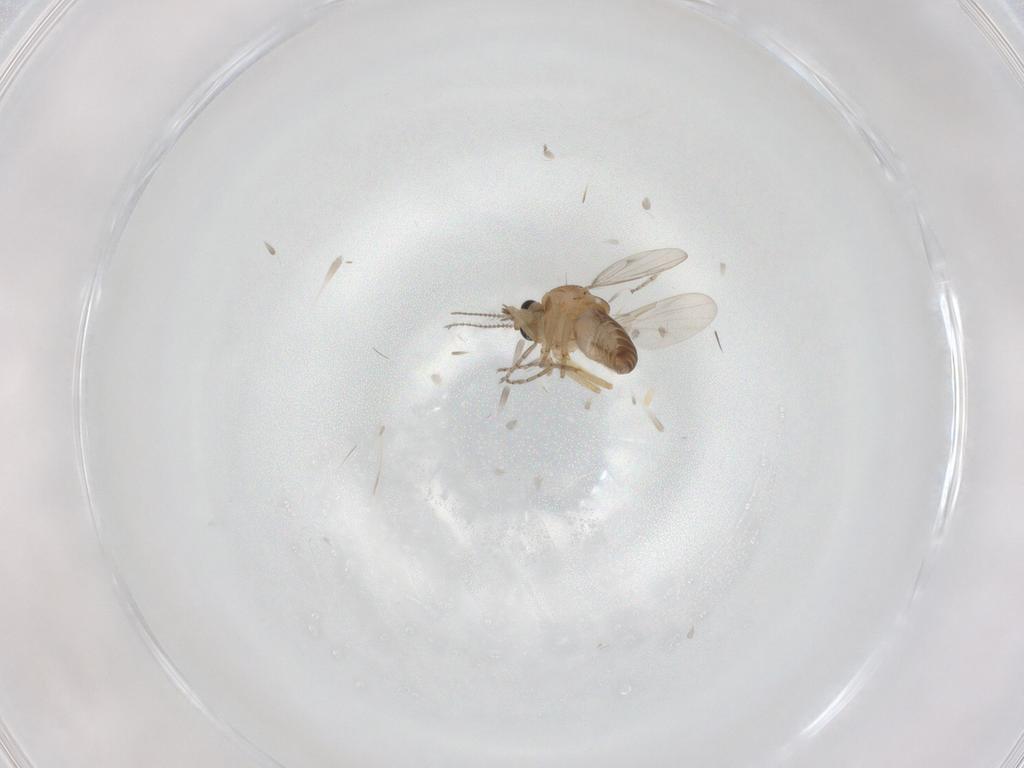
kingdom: Animalia
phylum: Arthropoda
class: Insecta
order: Diptera
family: Ceratopogonidae
